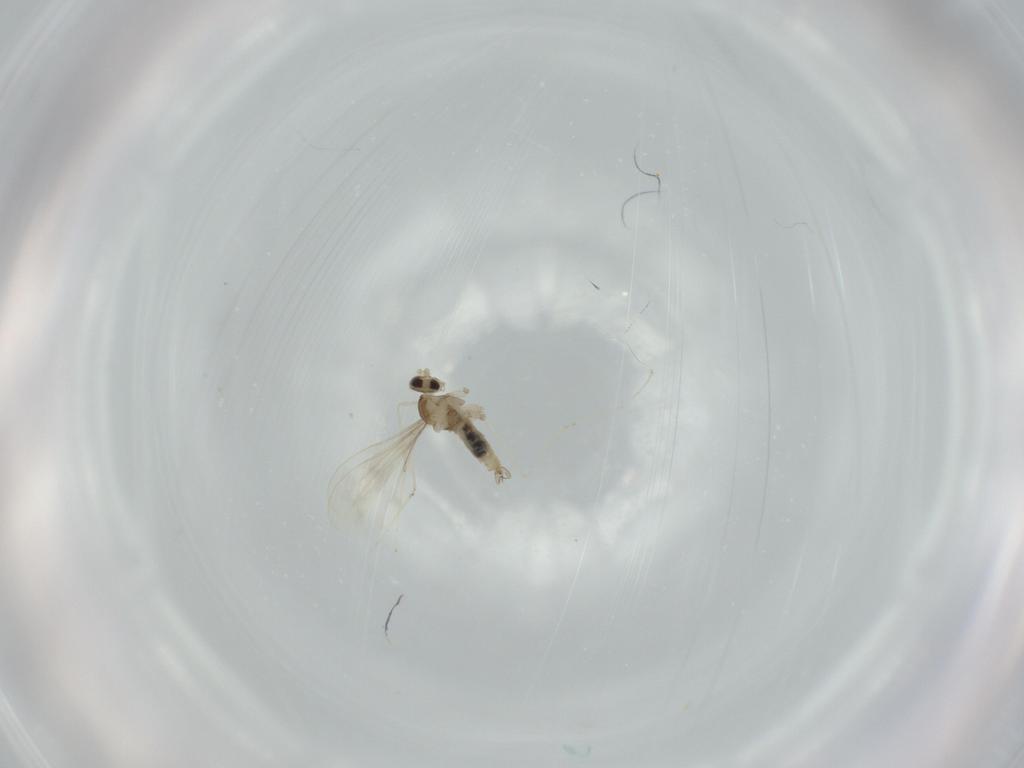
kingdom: Animalia
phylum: Arthropoda
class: Insecta
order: Diptera
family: Cecidomyiidae
